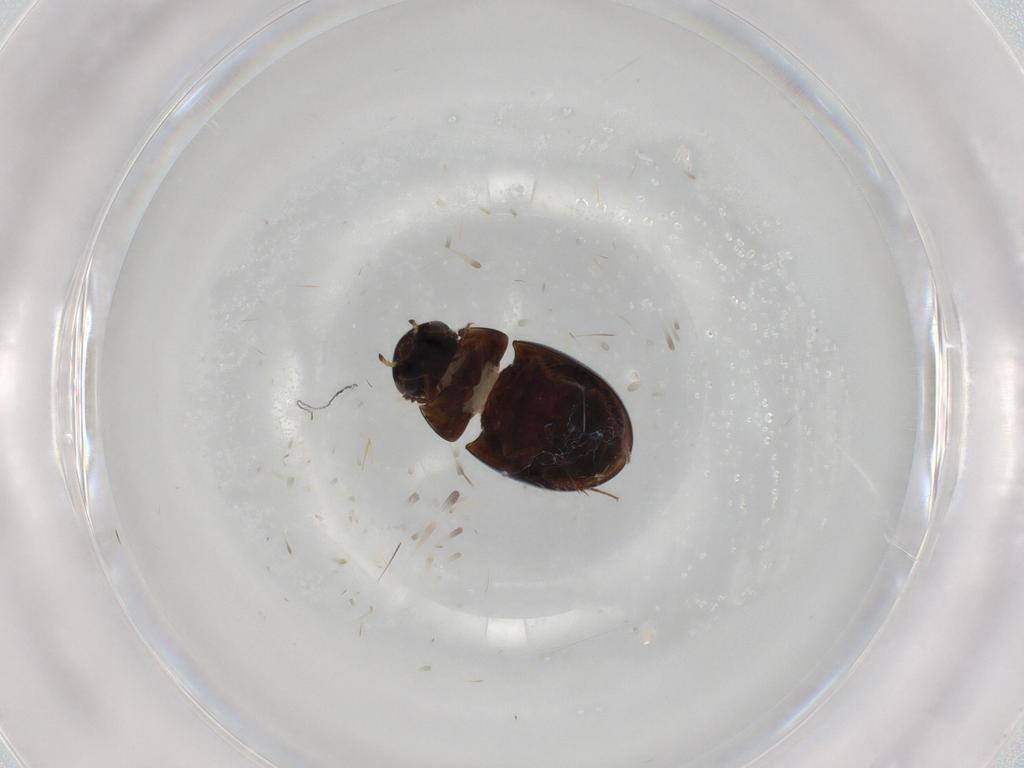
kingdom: Animalia
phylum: Arthropoda
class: Insecta
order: Coleoptera
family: Hydrophilidae
